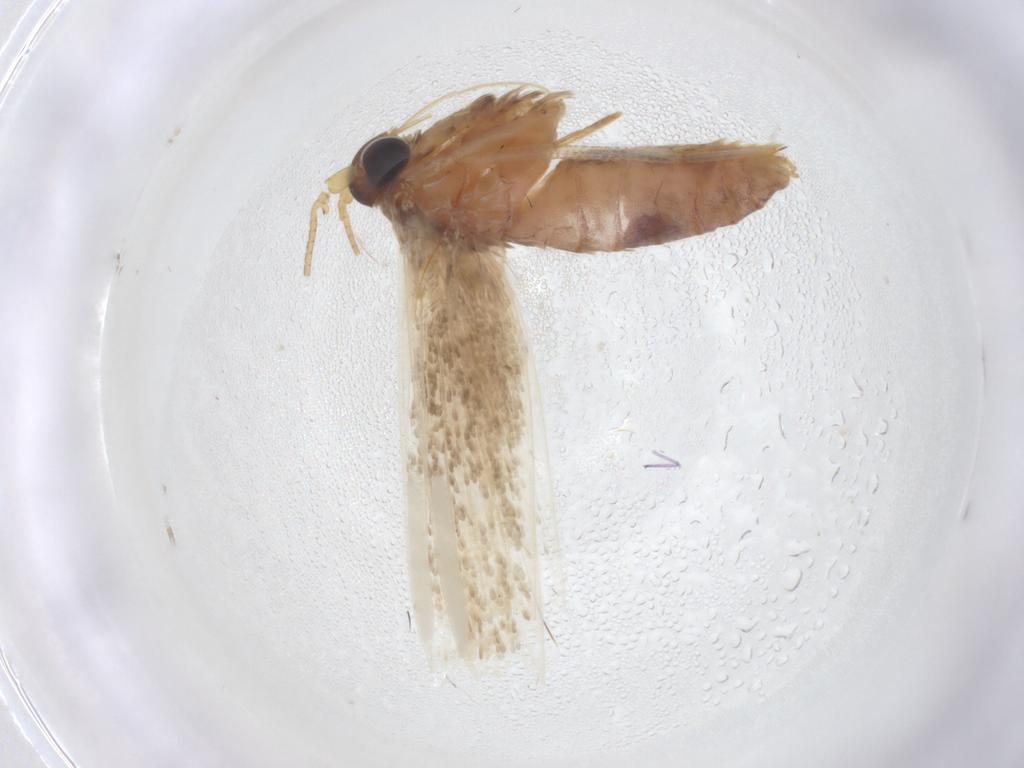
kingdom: Animalia
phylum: Arthropoda
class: Insecta
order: Lepidoptera
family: Blastobasidae
